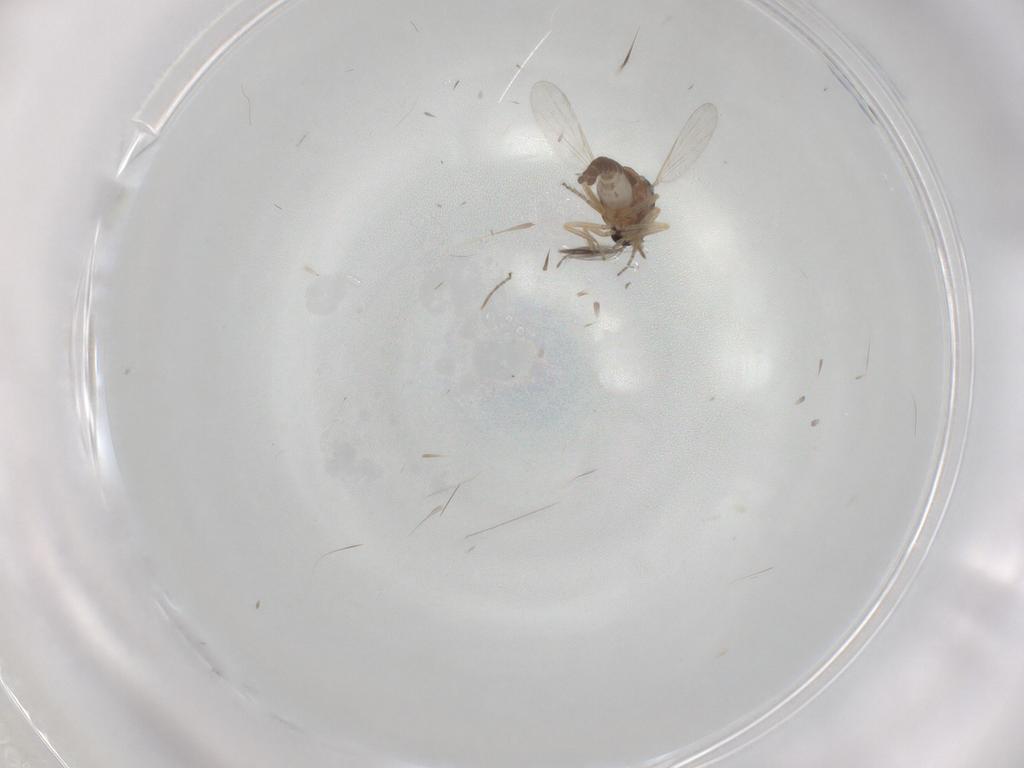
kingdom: Animalia
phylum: Arthropoda
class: Insecta
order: Diptera
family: Ceratopogonidae
